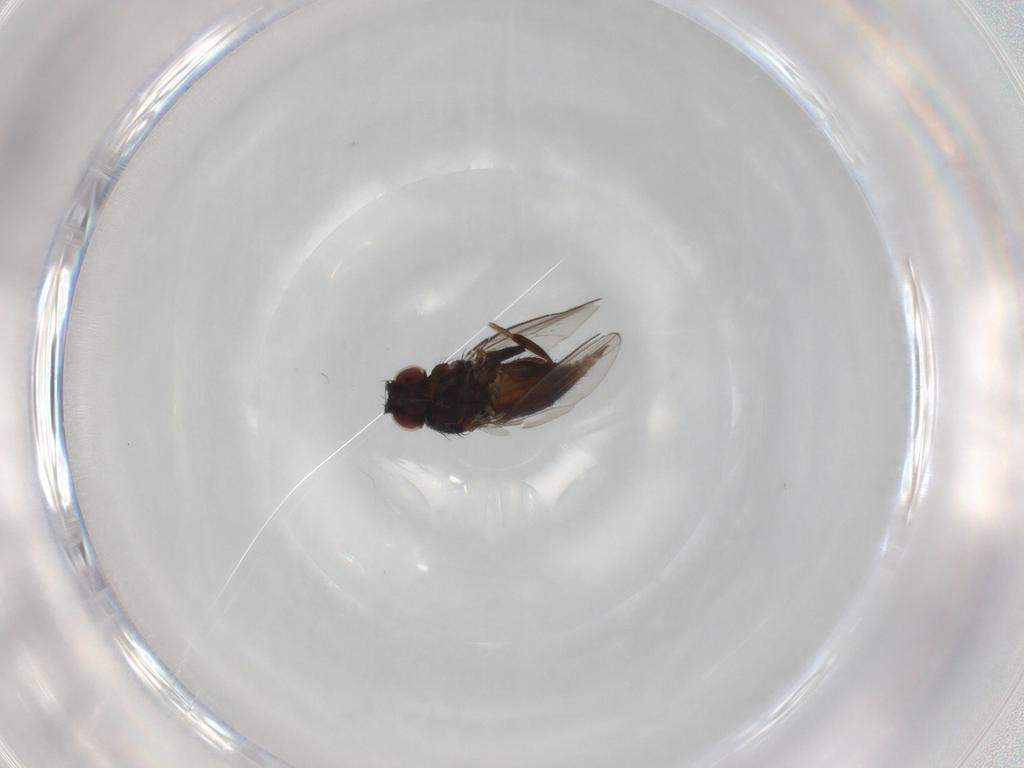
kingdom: Animalia
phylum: Arthropoda
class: Insecta
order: Diptera
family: Milichiidae
